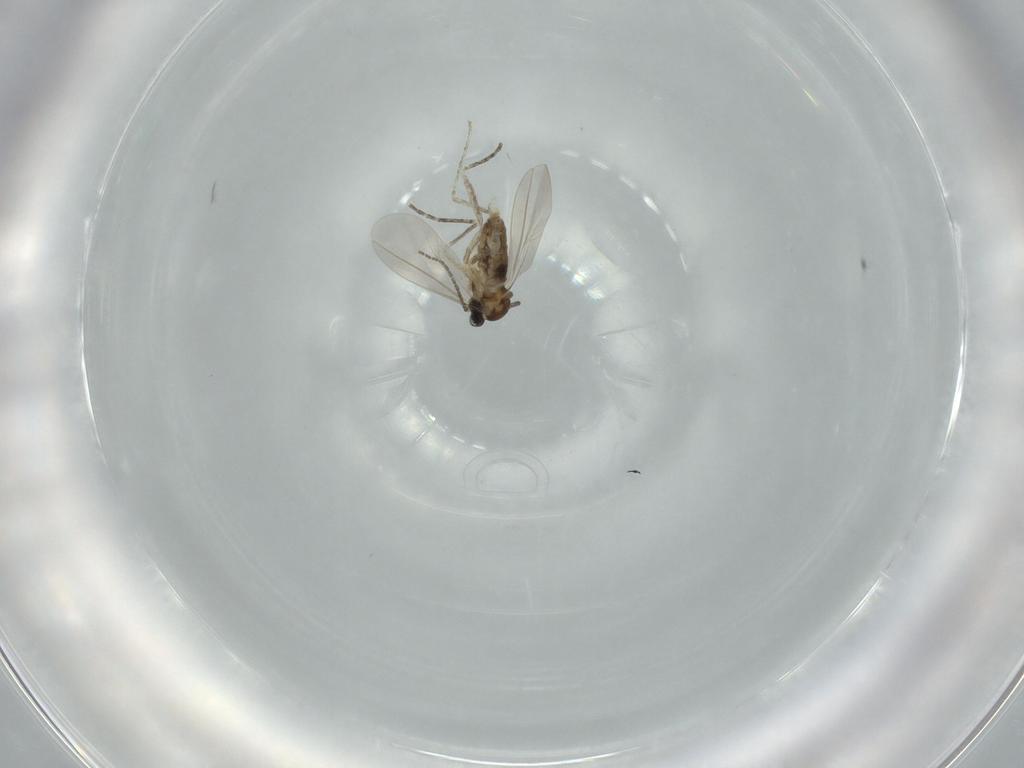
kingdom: Animalia
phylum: Arthropoda
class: Insecta
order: Diptera
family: Cecidomyiidae
